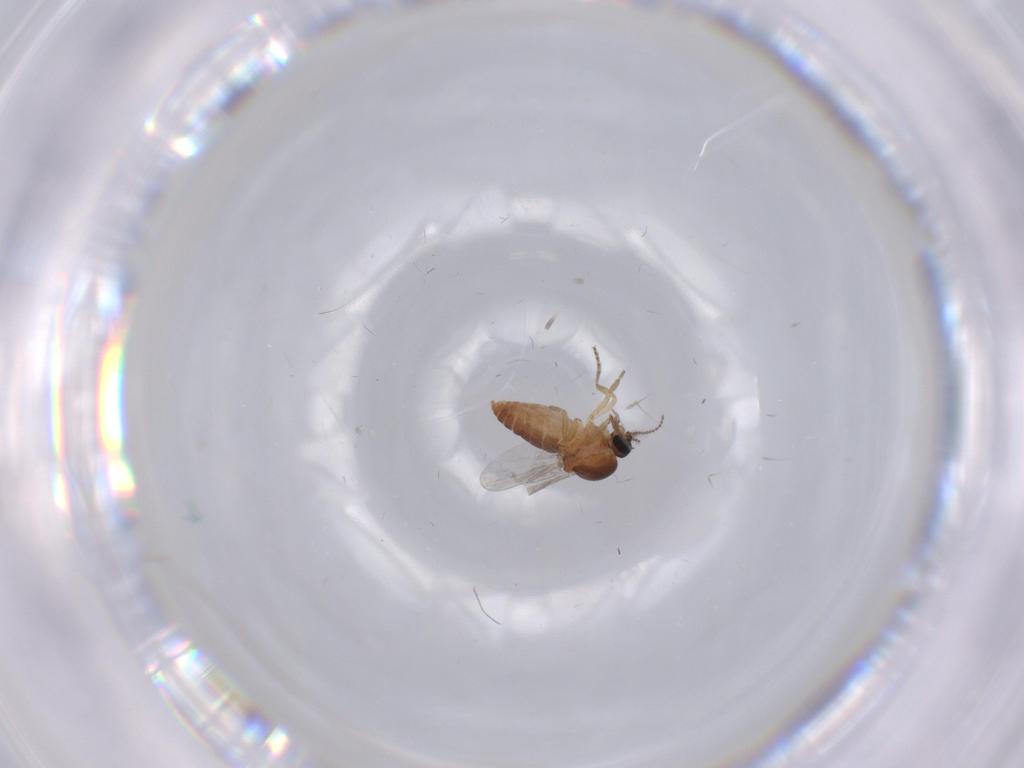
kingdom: Animalia
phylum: Arthropoda
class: Insecta
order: Diptera
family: Ceratopogonidae
